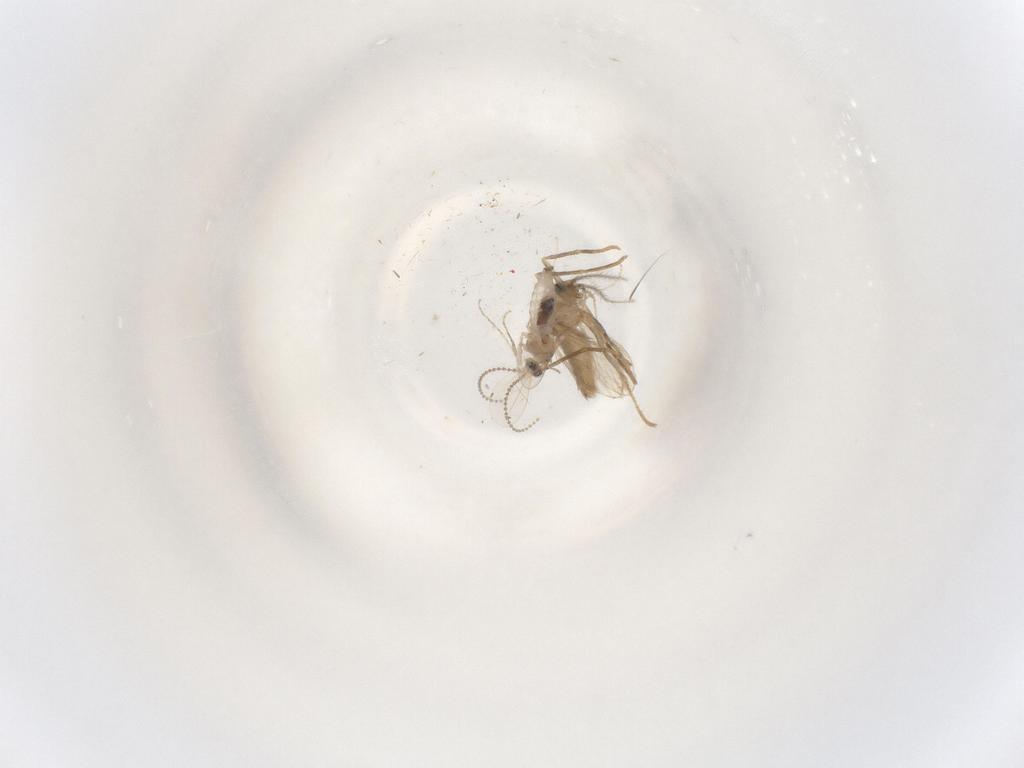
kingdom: Animalia
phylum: Arthropoda
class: Insecta
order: Diptera
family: Psychodidae
